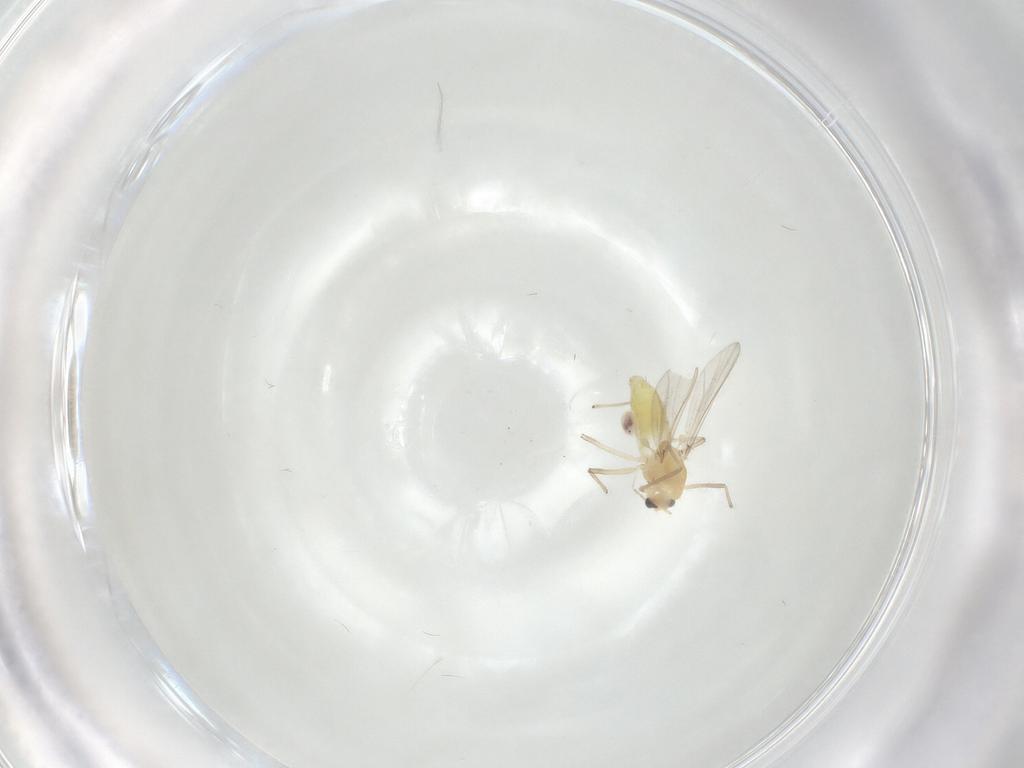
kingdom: Animalia
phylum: Arthropoda
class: Insecta
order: Diptera
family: Chironomidae
